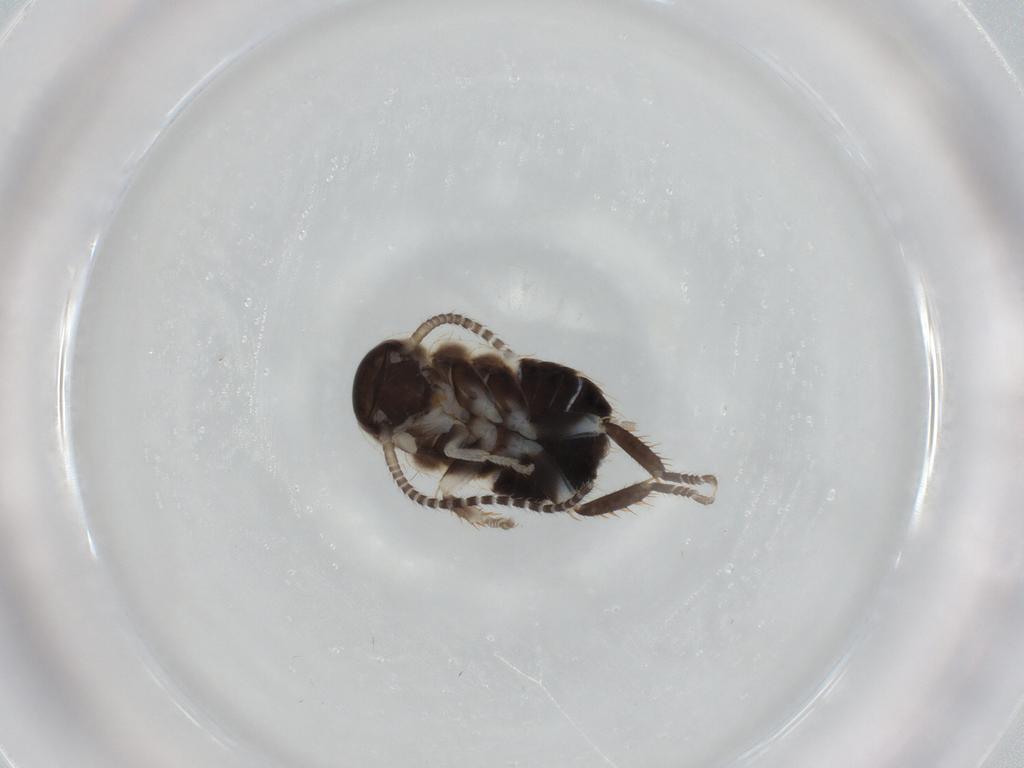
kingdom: Animalia
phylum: Arthropoda
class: Insecta
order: Blattodea
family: Ectobiidae
